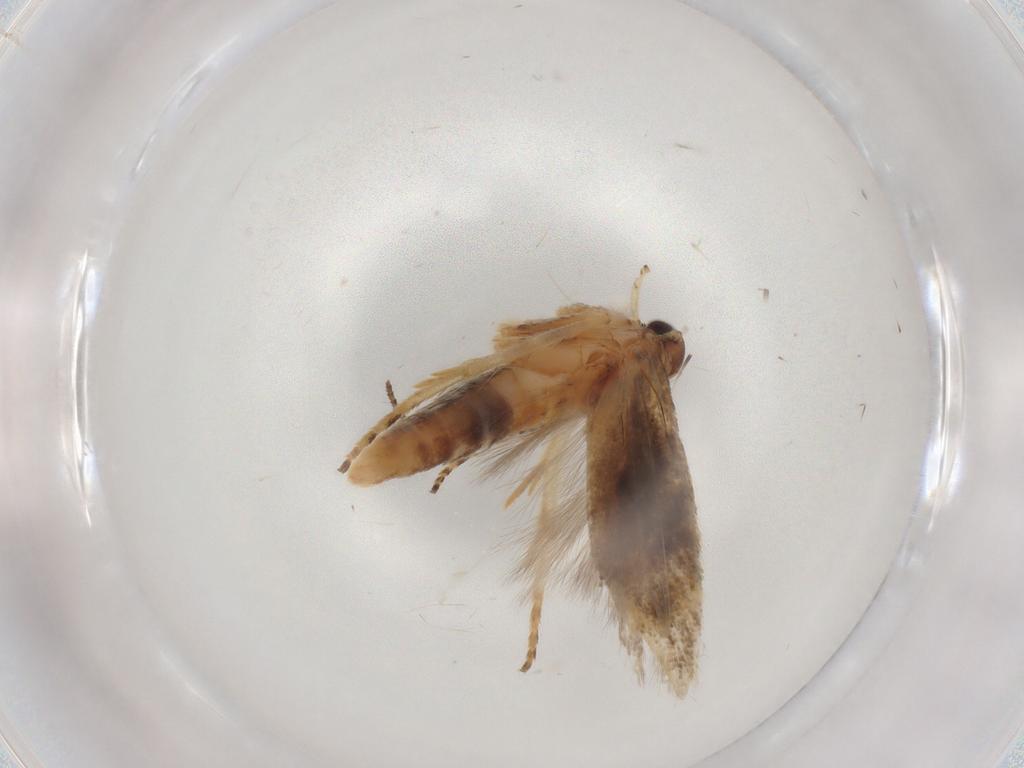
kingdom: Animalia
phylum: Arthropoda
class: Insecta
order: Lepidoptera
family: Gelechiidae
